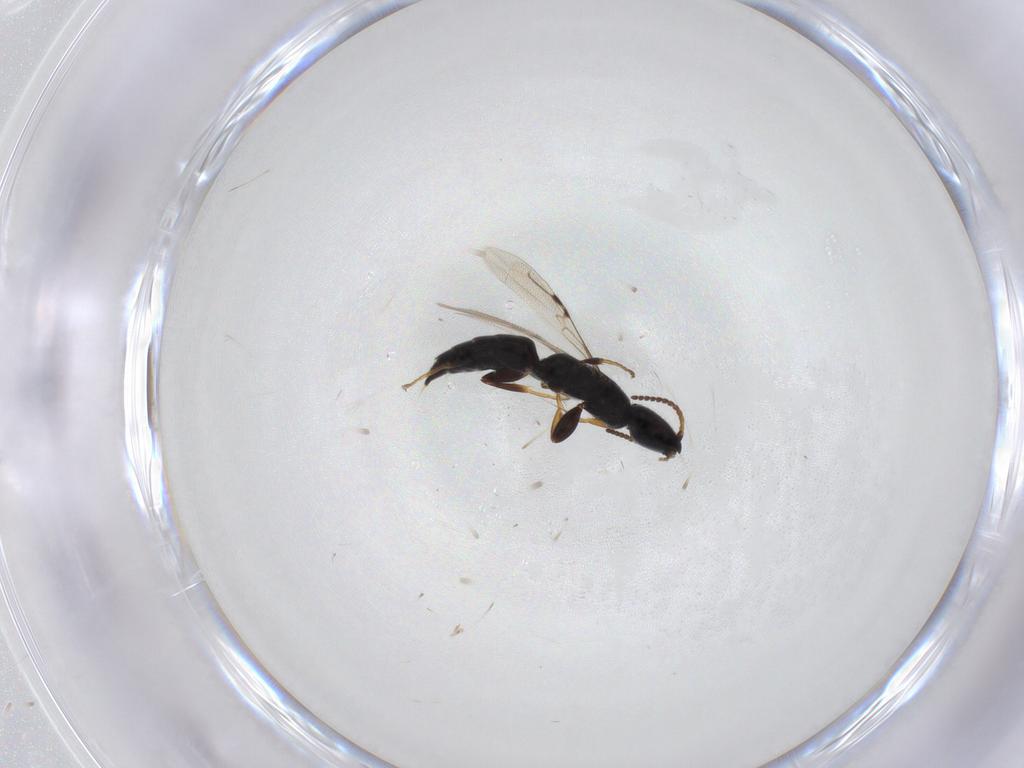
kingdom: Animalia
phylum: Arthropoda
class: Insecta
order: Hymenoptera
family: Bethylidae
